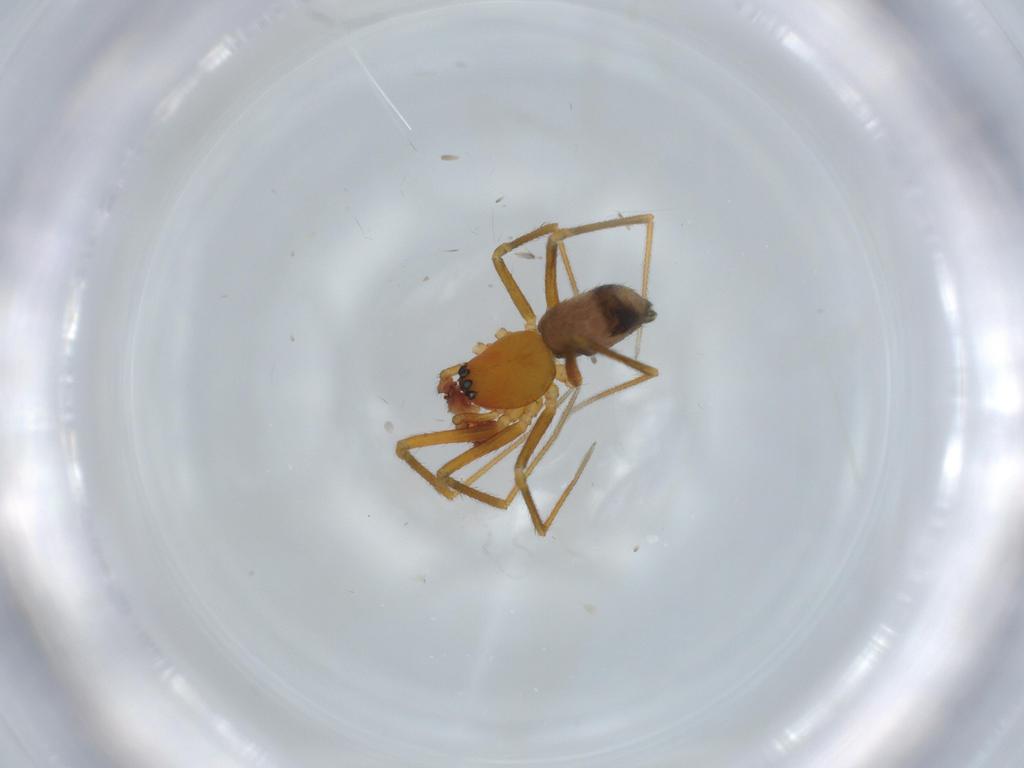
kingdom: Animalia
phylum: Arthropoda
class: Arachnida
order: Araneae
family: Linyphiidae
